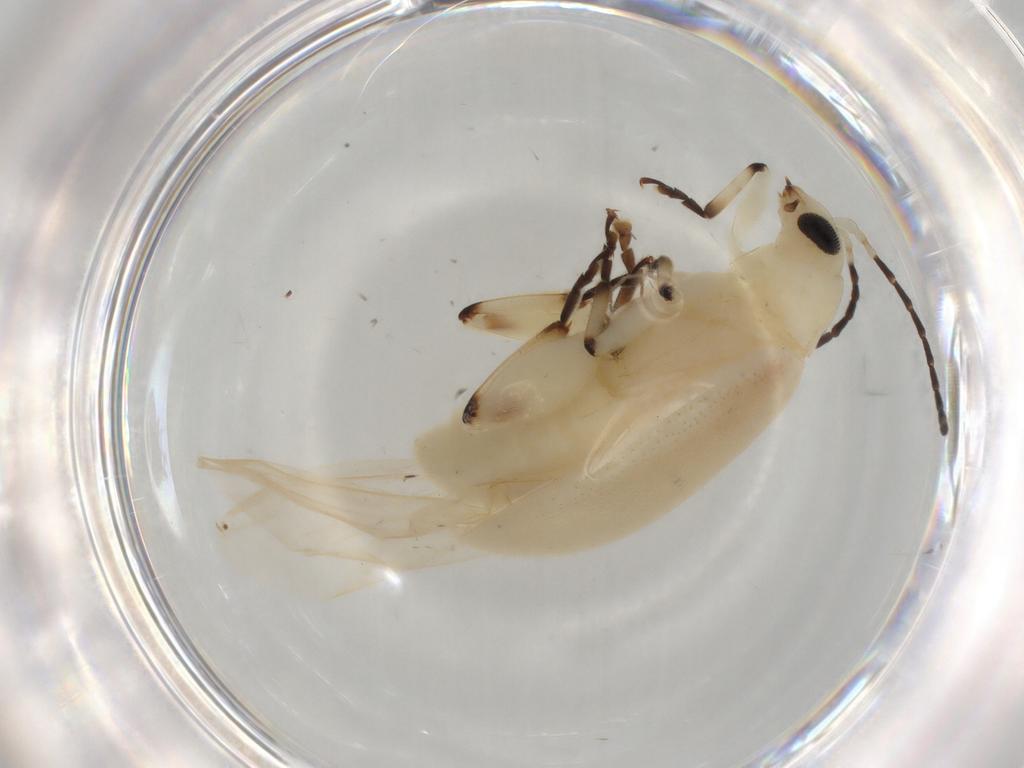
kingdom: Animalia
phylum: Arthropoda
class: Insecta
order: Coleoptera
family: Chrysomelidae
